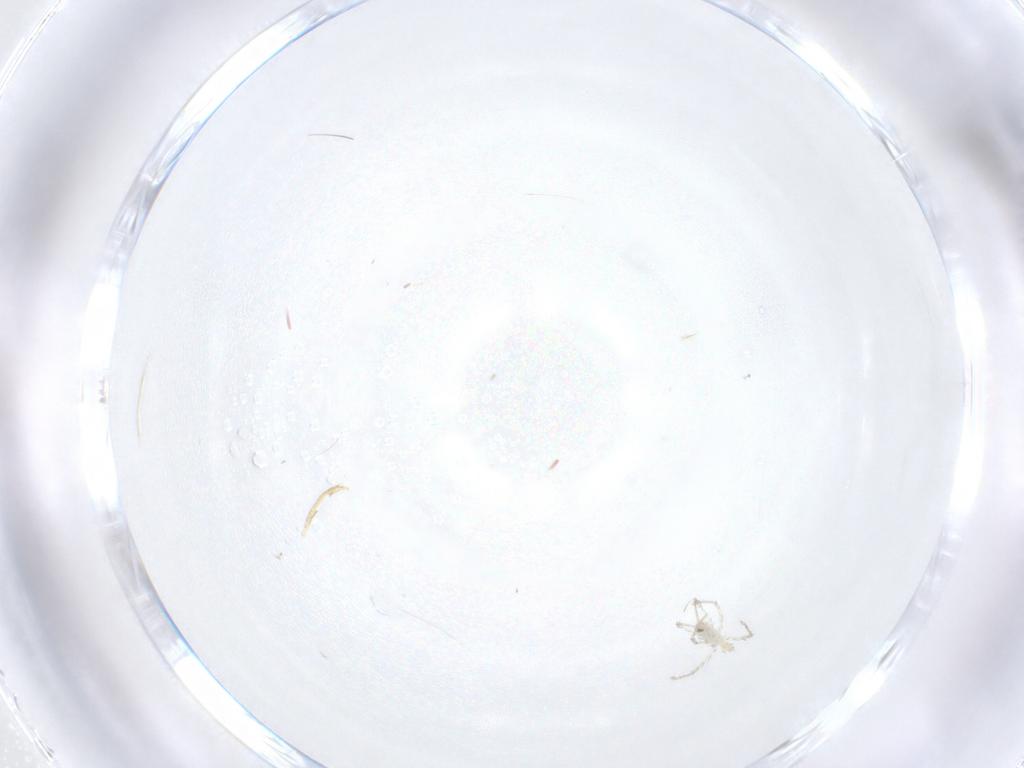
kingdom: Animalia
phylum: Arthropoda
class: Arachnida
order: Trombidiformes
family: Erythraeidae
